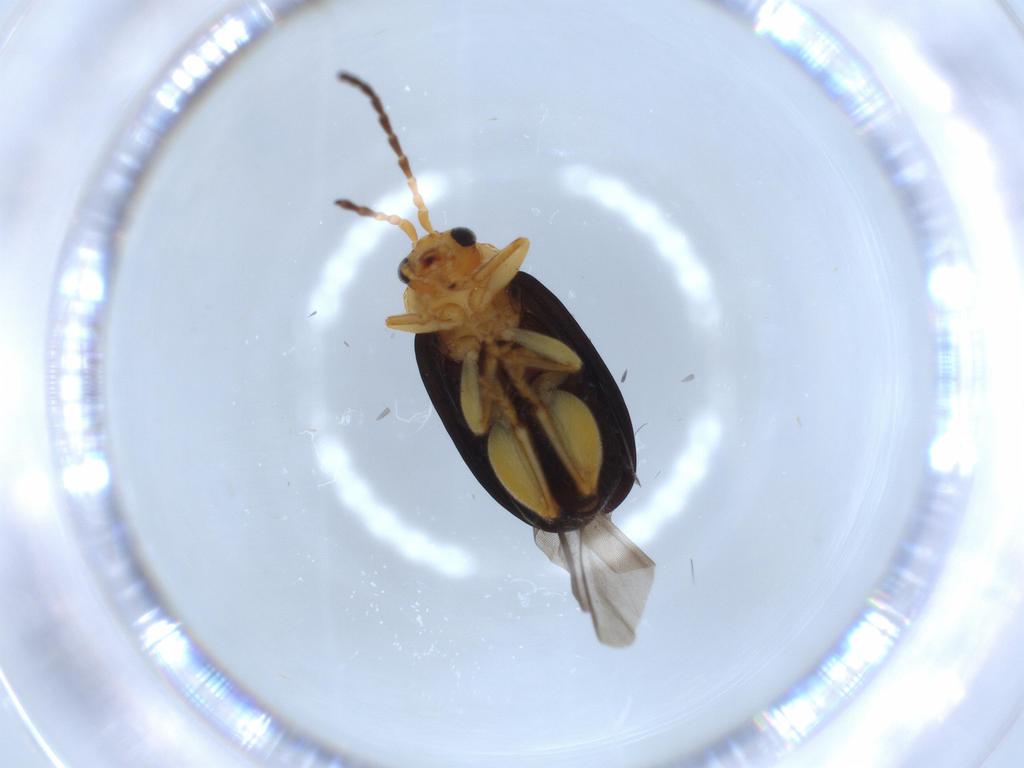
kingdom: Animalia
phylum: Arthropoda
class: Insecta
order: Coleoptera
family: Chrysomelidae
